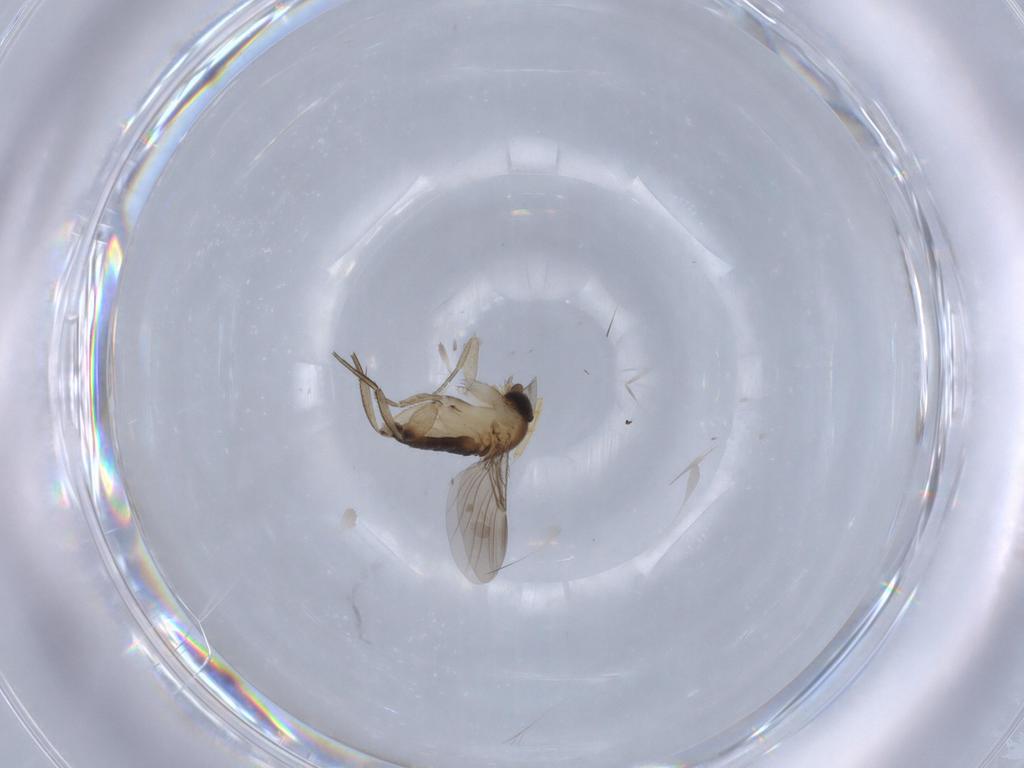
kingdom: Animalia
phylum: Arthropoda
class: Insecta
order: Diptera
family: Phoridae
